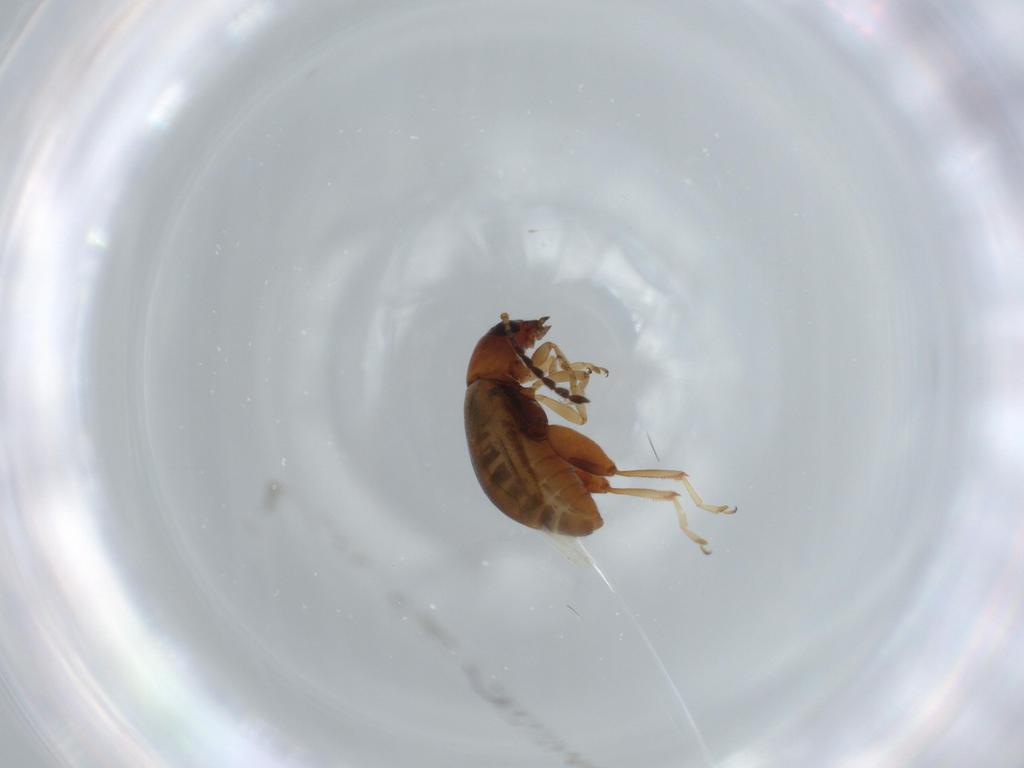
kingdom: Animalia
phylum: Arthropoda
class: Insecta
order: Coleoptera
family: Chrysomelidae
